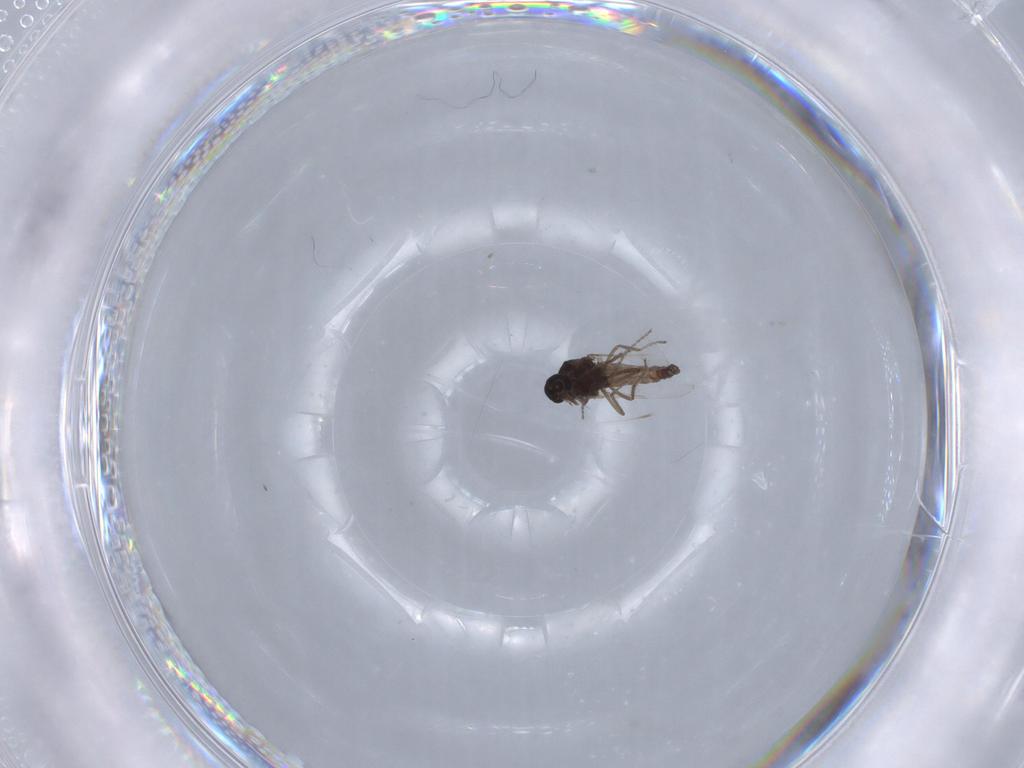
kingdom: Animalia
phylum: Arthropoda
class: Insecta
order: Diptera
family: Ceratopogonidae
